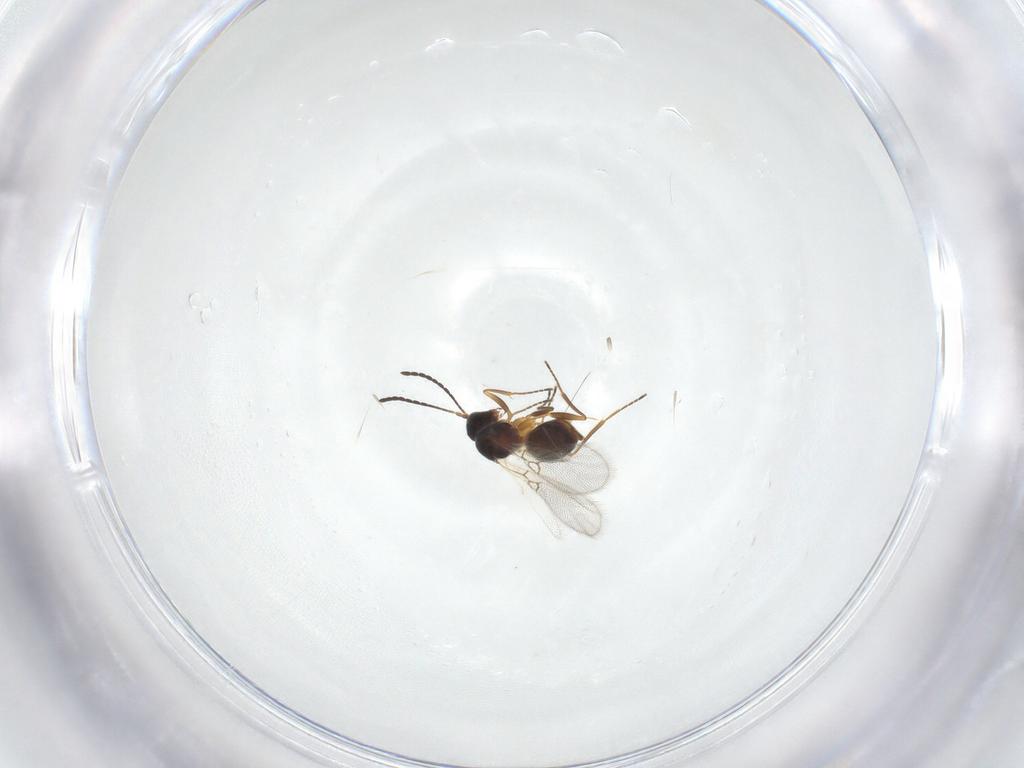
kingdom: Animalia
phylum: Arthropoda
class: Insecta
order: Hymenoptera
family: Figitidae
